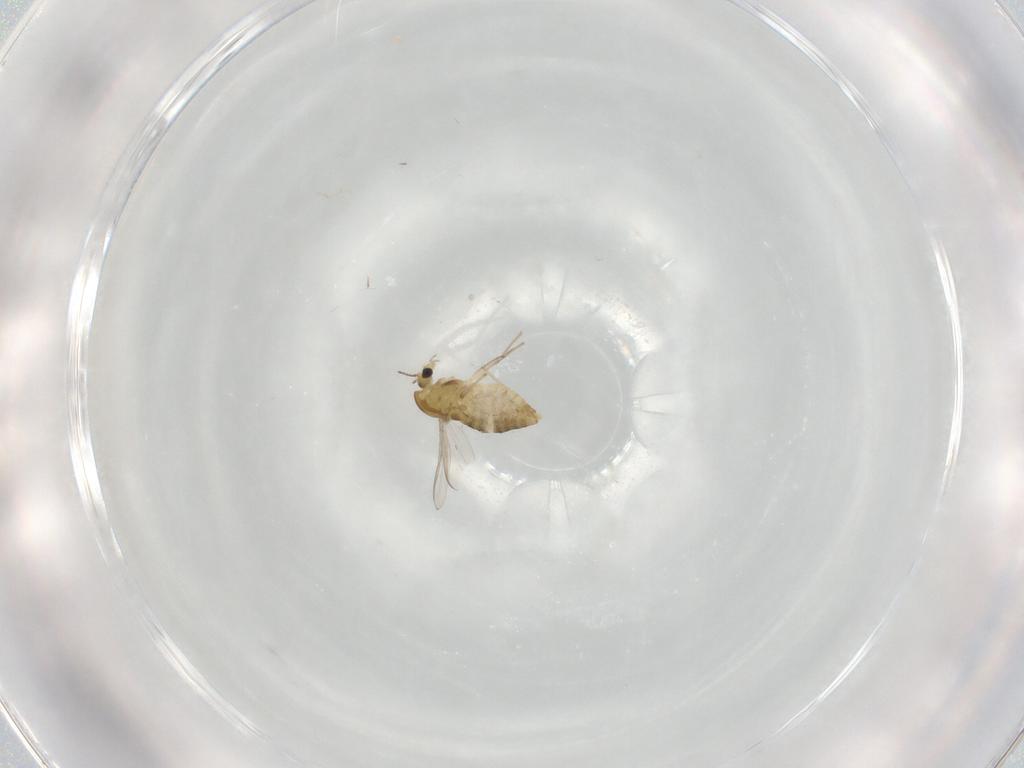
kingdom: Animalia
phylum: Arthropoda
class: Insecta
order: Diptera
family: Chironomidae
